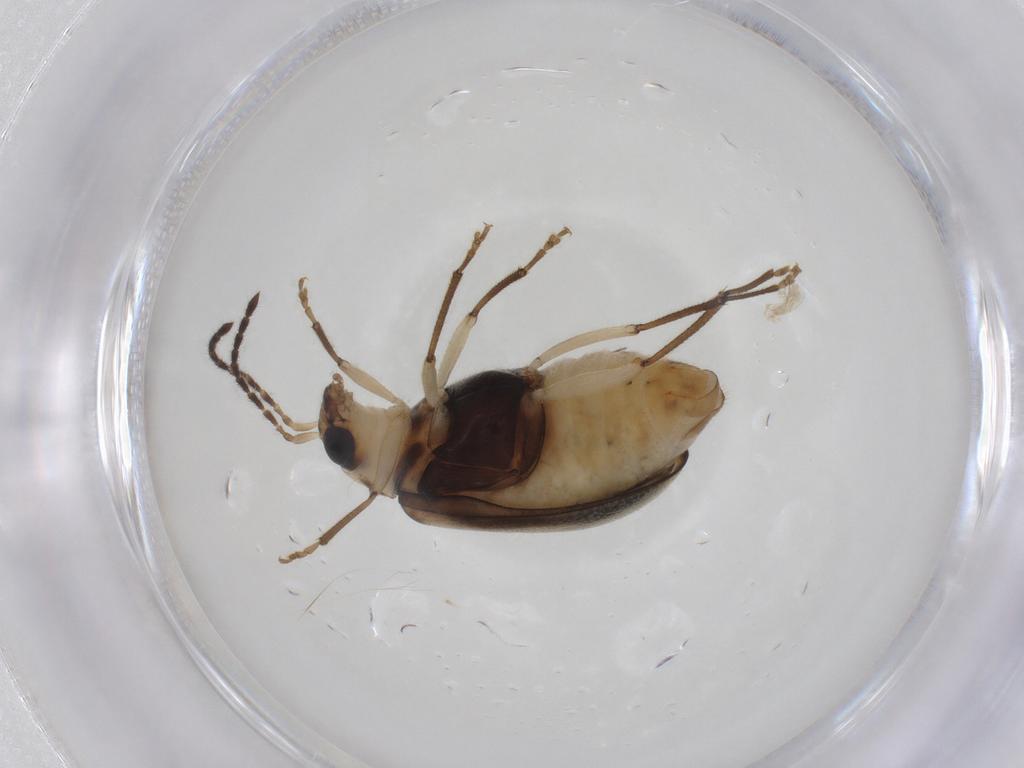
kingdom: Animalia
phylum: Arthropoda
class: Insecta
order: Coleoptera
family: Chrysomelidae
